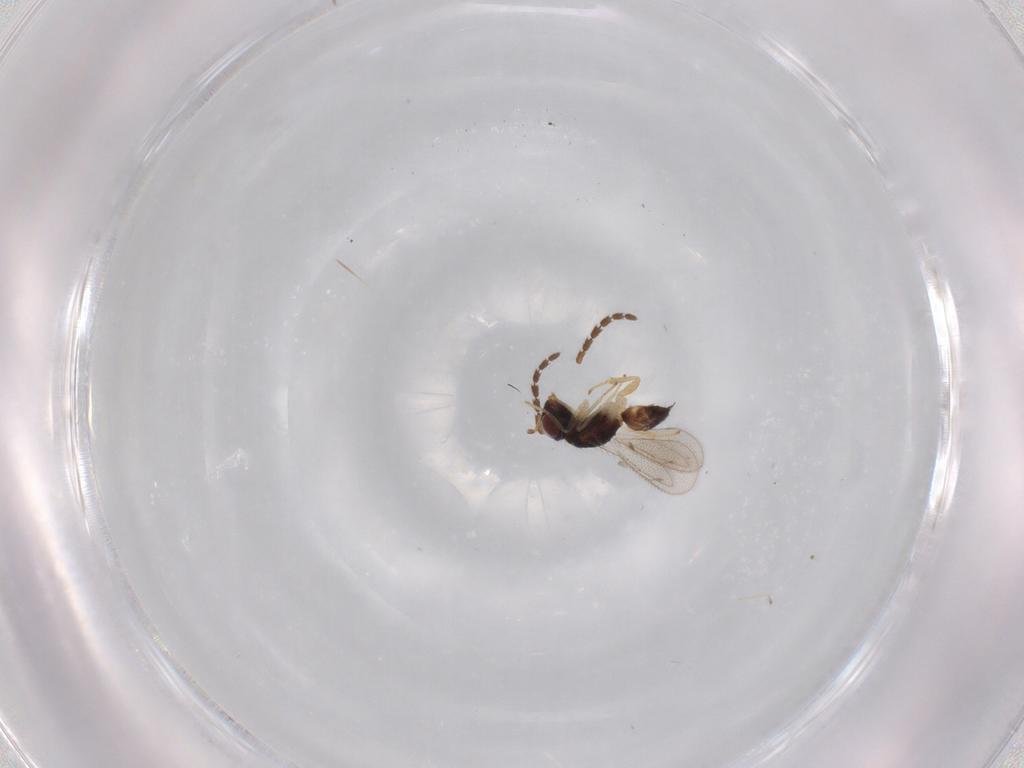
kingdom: Animalia
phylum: Arthropoda
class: Insecta
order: Hymenoptera
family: Eulophidae
